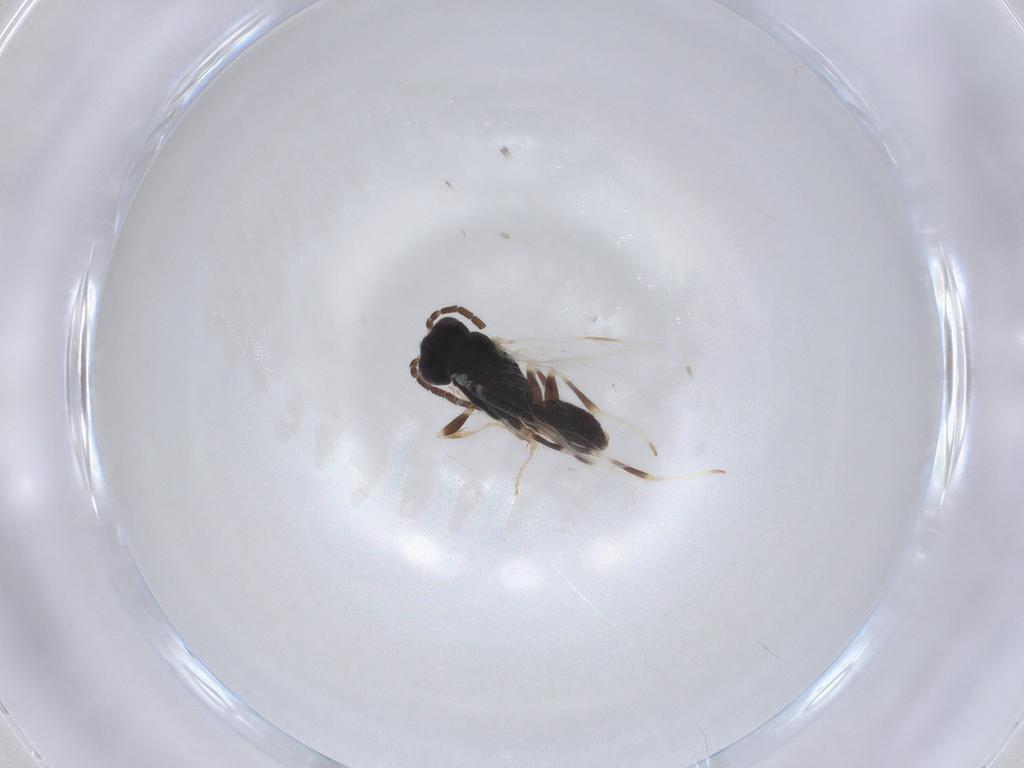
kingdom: Animalia
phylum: Arthropoda
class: Insecta
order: Hymenoptera
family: Dryinidae
